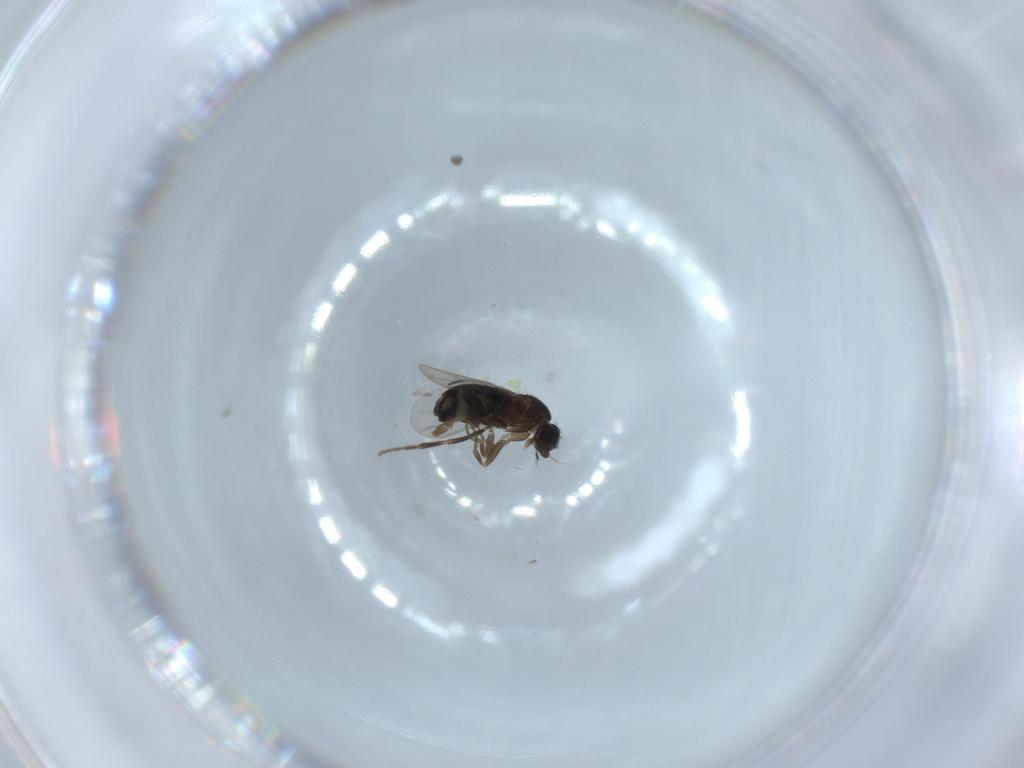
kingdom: Animalia
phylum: Arthropoda
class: Insecta
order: Diptera
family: Phoridae
